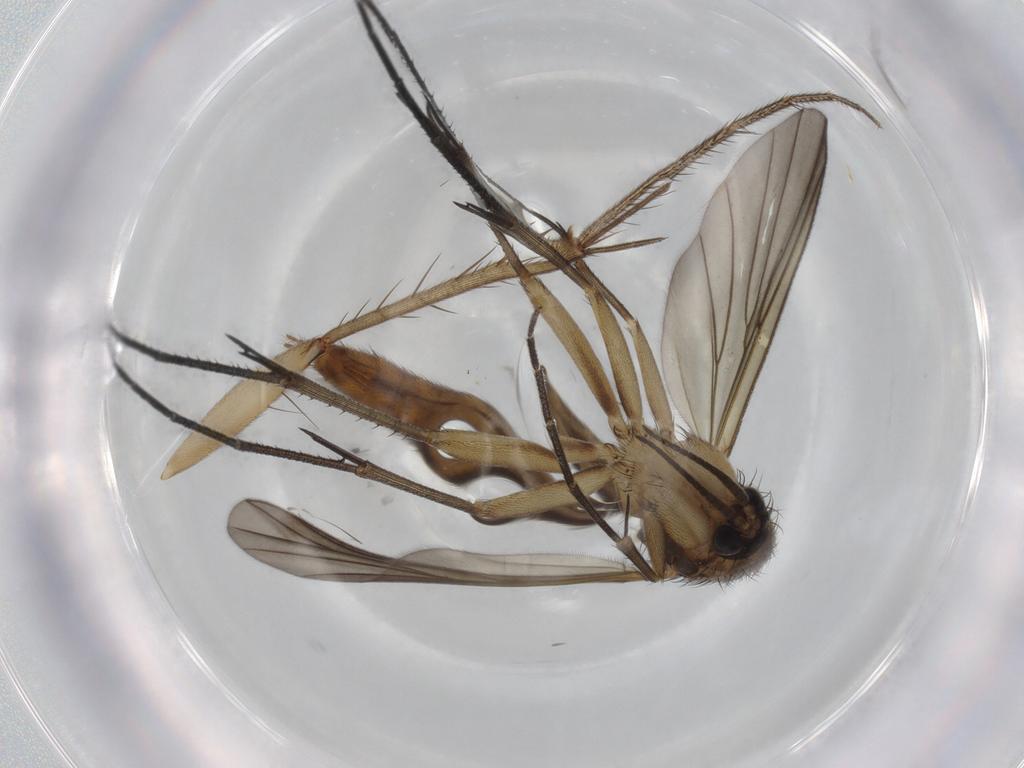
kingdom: Animalia
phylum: Arthropoda
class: Insecta
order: Diptera
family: Mycetophilidae
